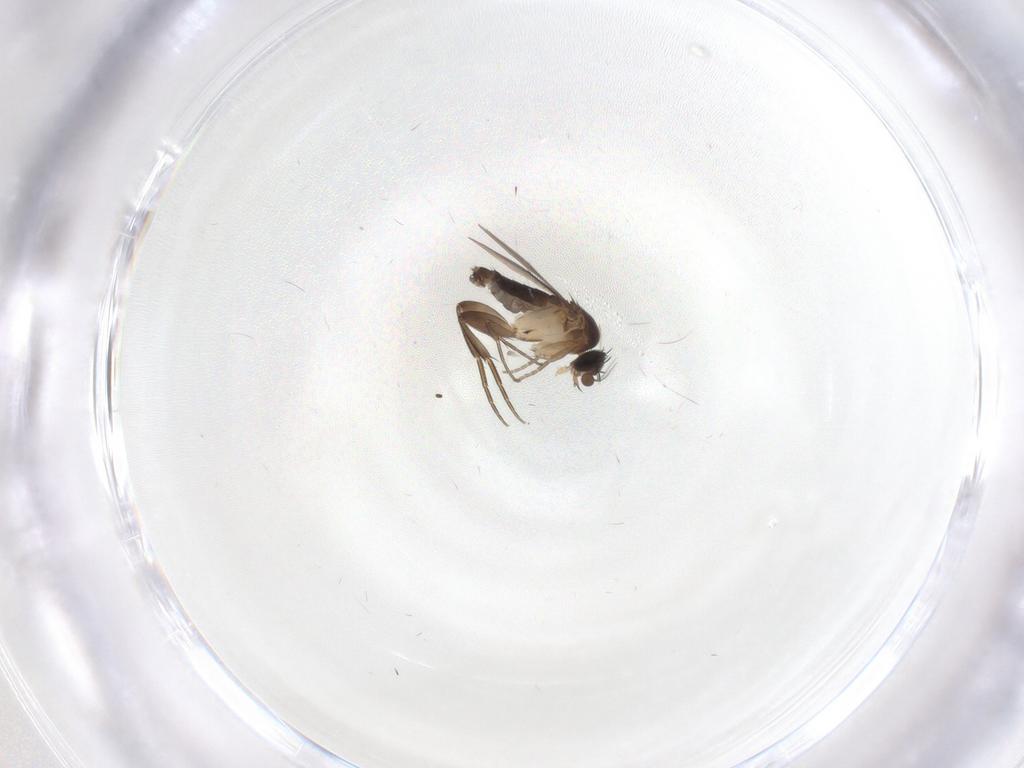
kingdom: Animalia
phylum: Arthropoda
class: Insecta
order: Diptera
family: Phoridae
